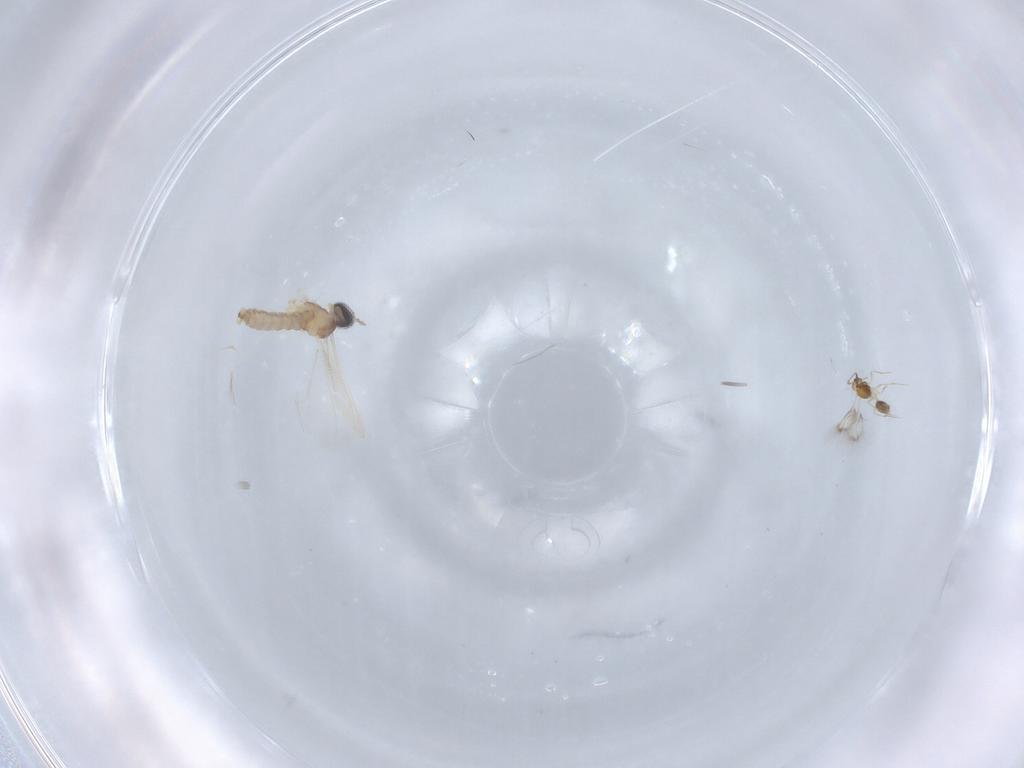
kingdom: Animalia
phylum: Arthropoda
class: Insecta
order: Diptera
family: Cecidomyiidae
